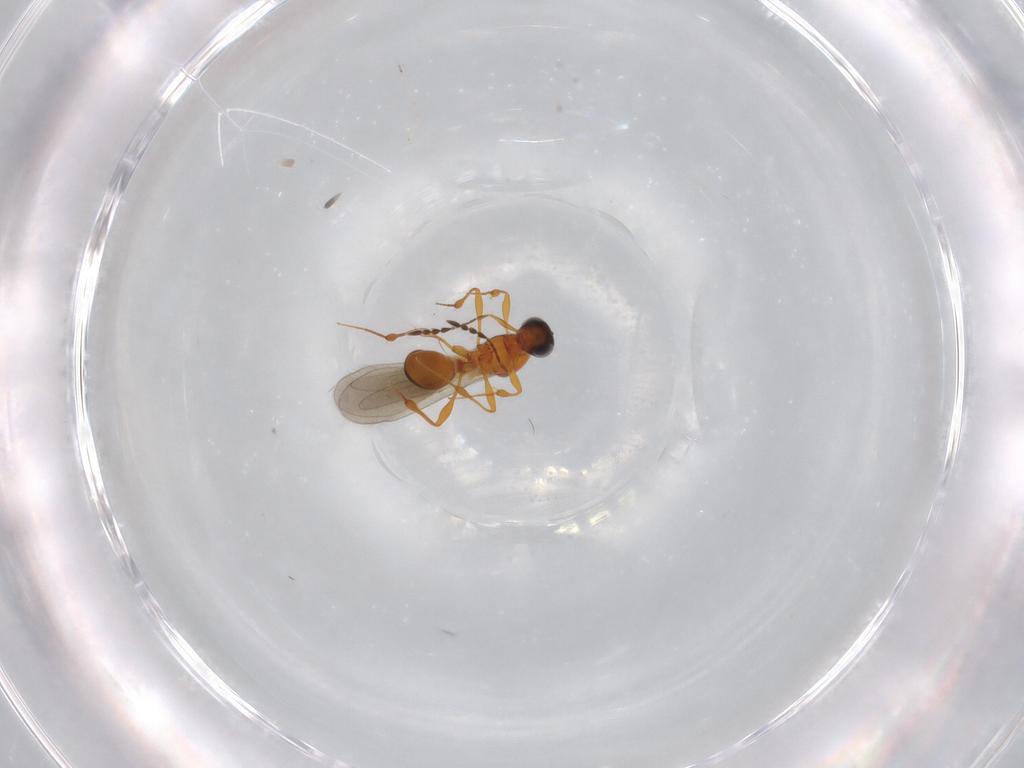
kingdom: Animalia
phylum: Arthropoda
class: Insecta
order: Hymenoptera
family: Platygastridae
